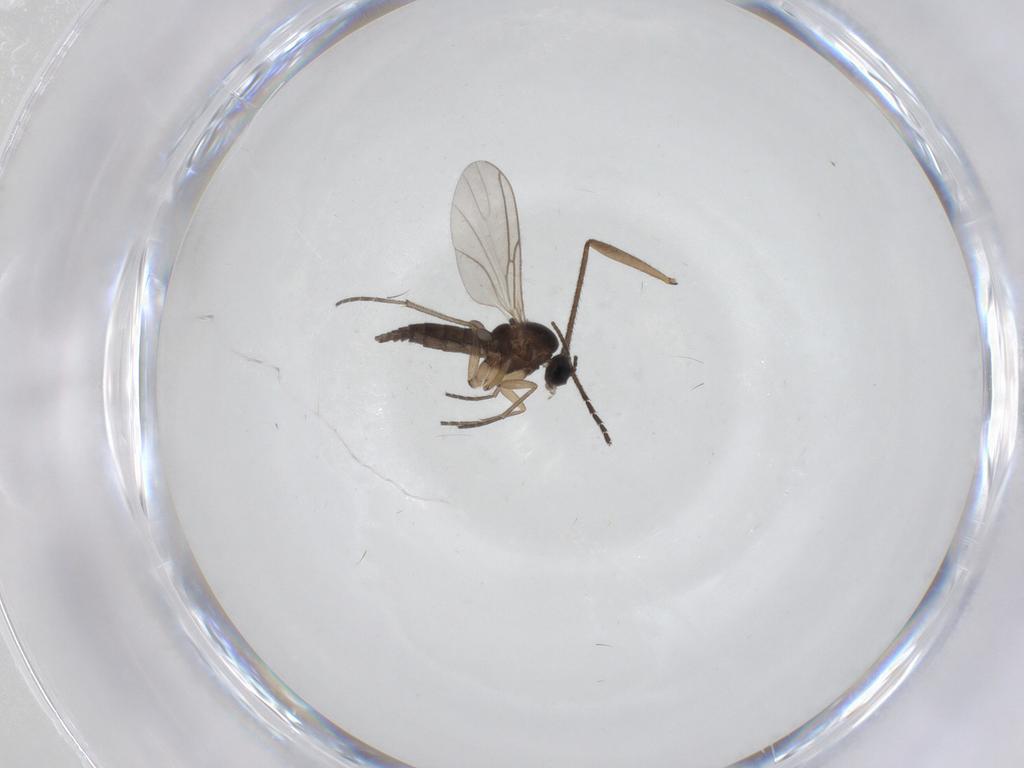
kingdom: Animalia
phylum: Arthropoda
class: Insecta
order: Diptera
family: Sciaridae
